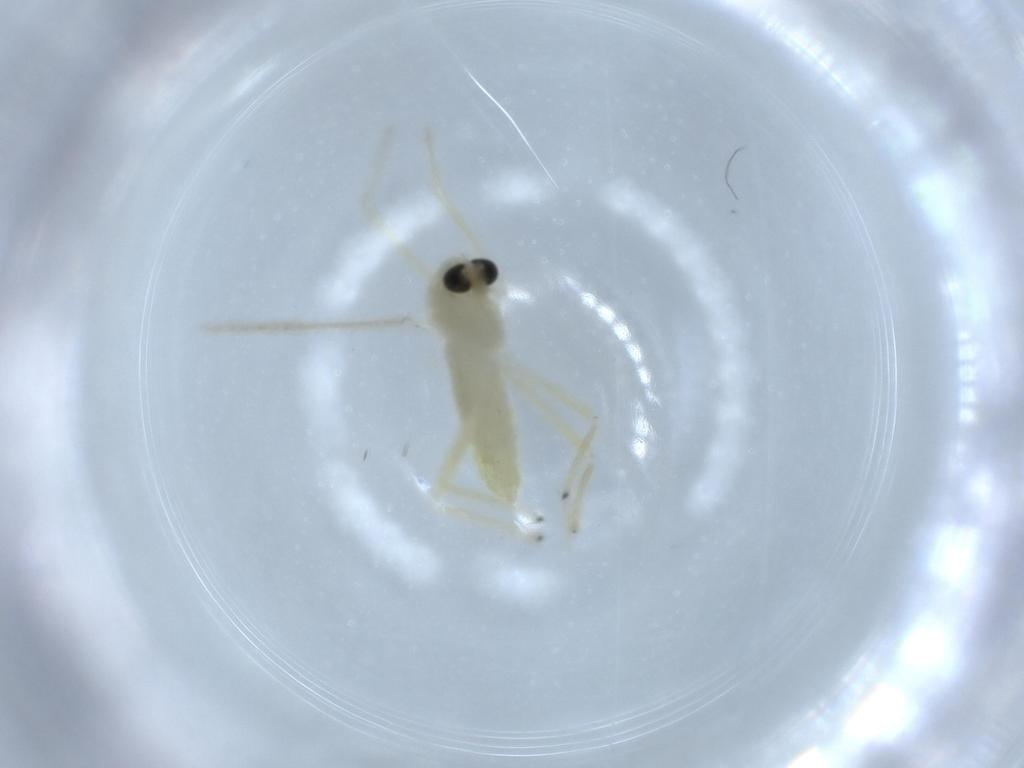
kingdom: Animalia
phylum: Arthropoda
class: Insecta
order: Diptera
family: Chironomidae
